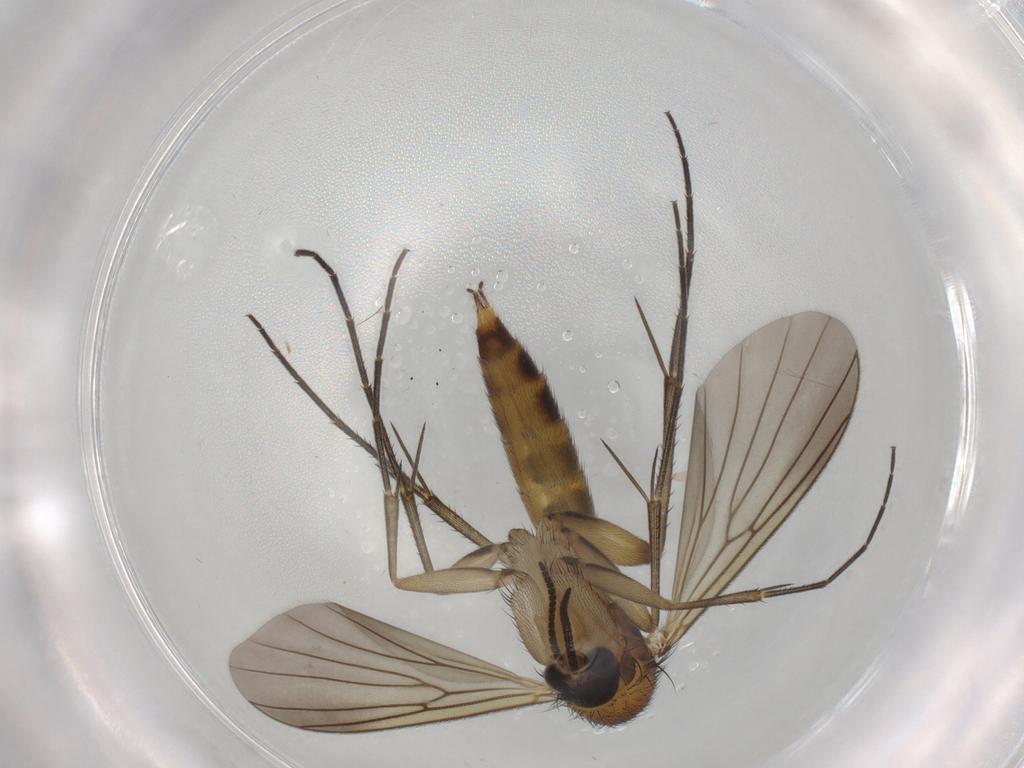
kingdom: Animalia
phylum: Arthropoda
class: Insecta
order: Diptera
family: Mycetophilidae
